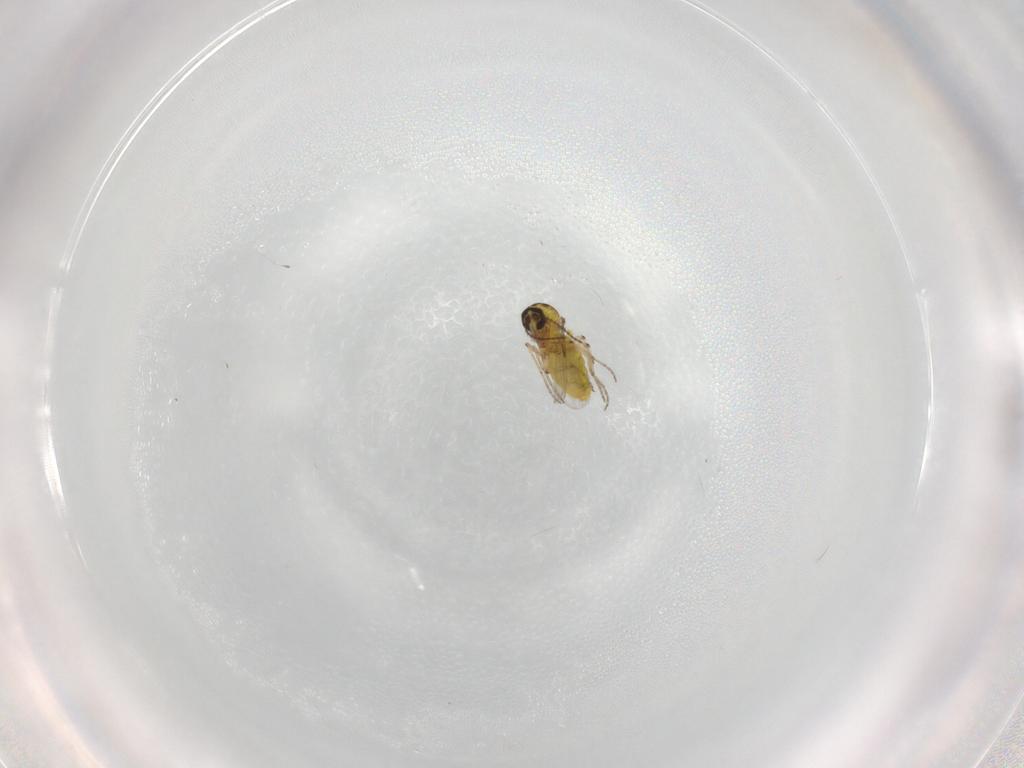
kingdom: Animalia
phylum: Arthropoda
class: Insecta
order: Diptera
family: Ceratopogonidae
